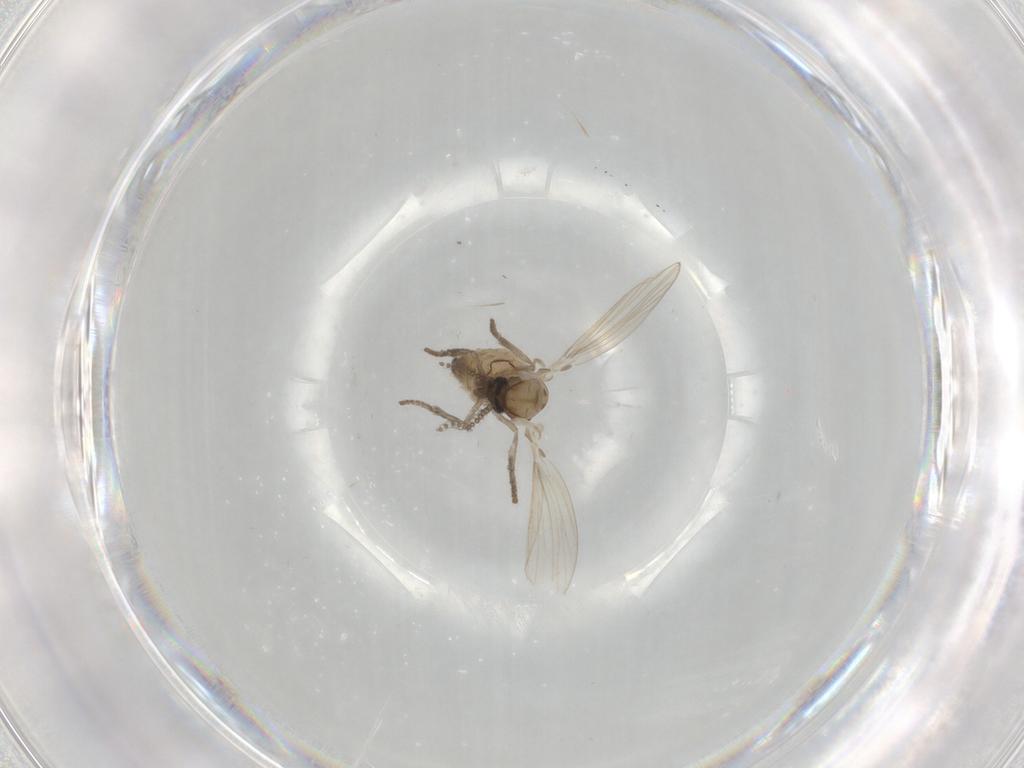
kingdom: Animalia
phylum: Arthropoda
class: Insecta
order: Diptera
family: Psychodidae
